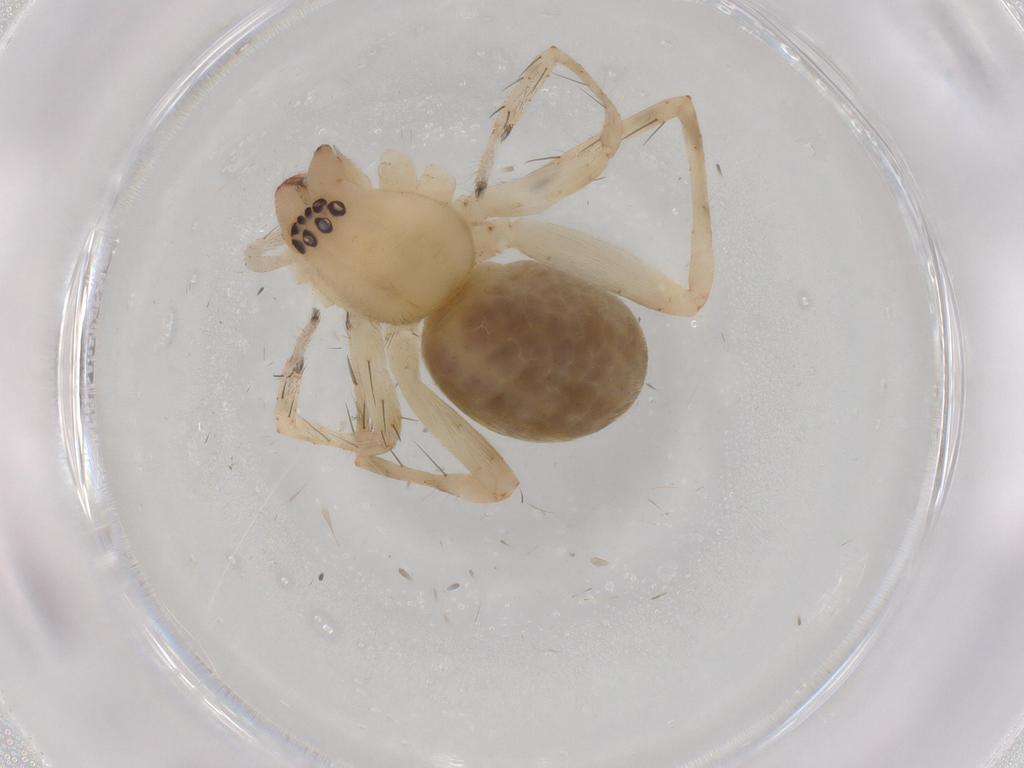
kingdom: Animalia
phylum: Arthropoda
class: Arachnida
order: Araneae
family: Anyphaenidae
